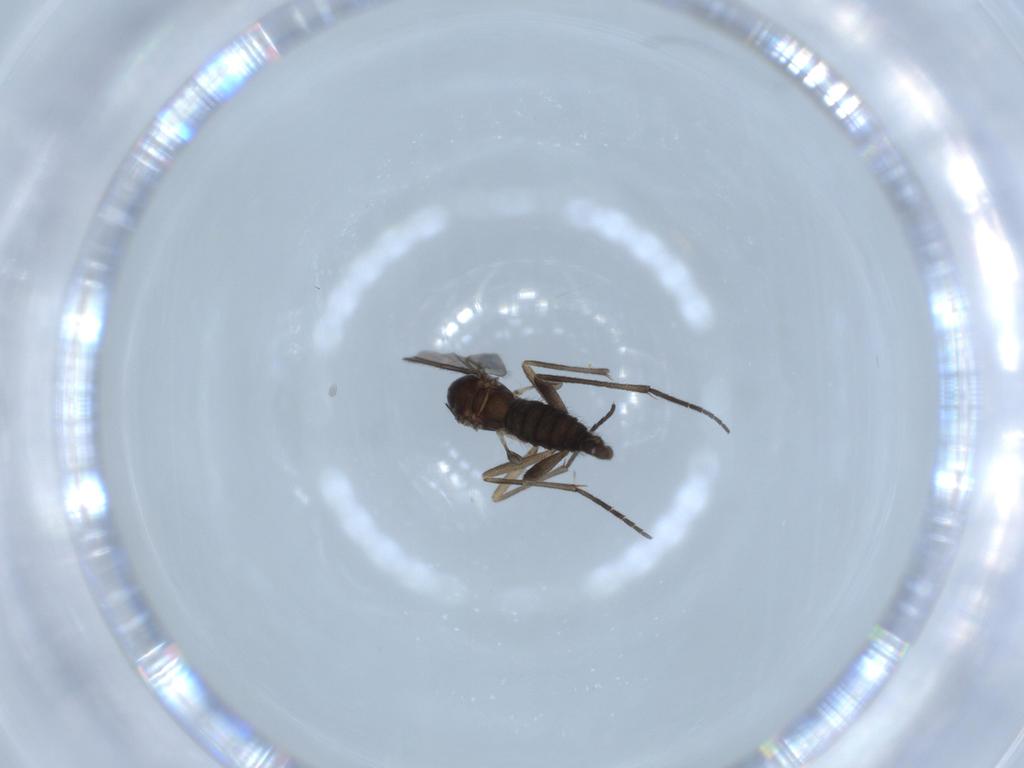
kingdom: Animalia
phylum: Arthropoda
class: Insecta
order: Diptera
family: Sciaridae
